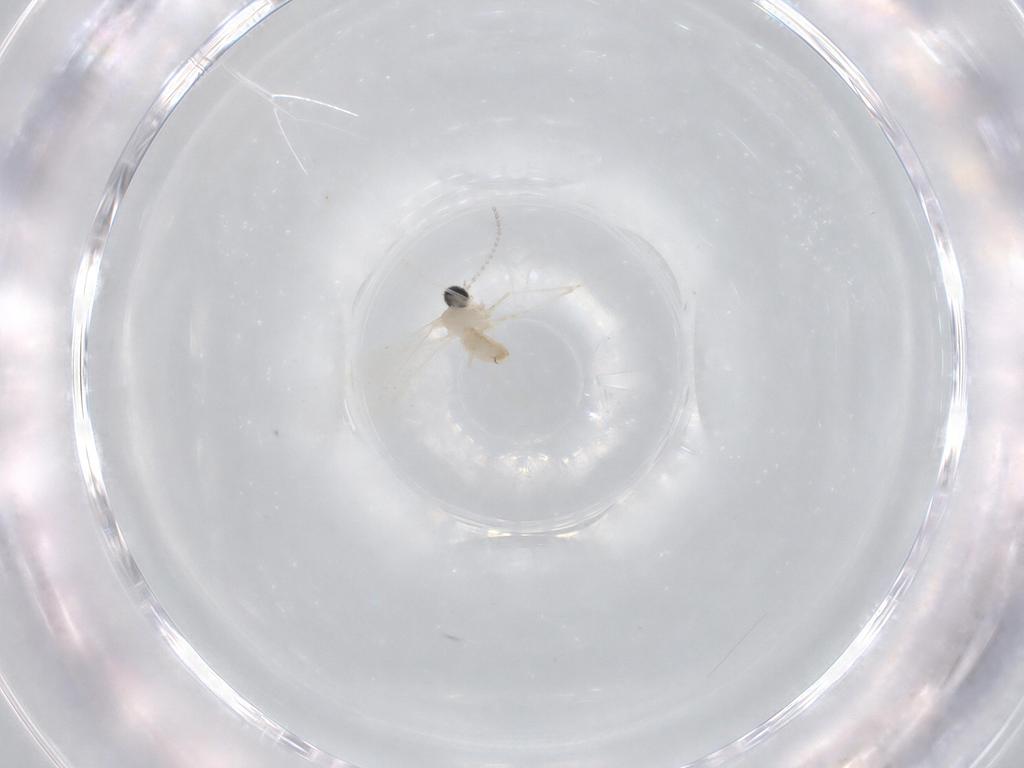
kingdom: Animalia
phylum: Arthropoda
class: Insecta
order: Diptera
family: Cecidomyiidae
